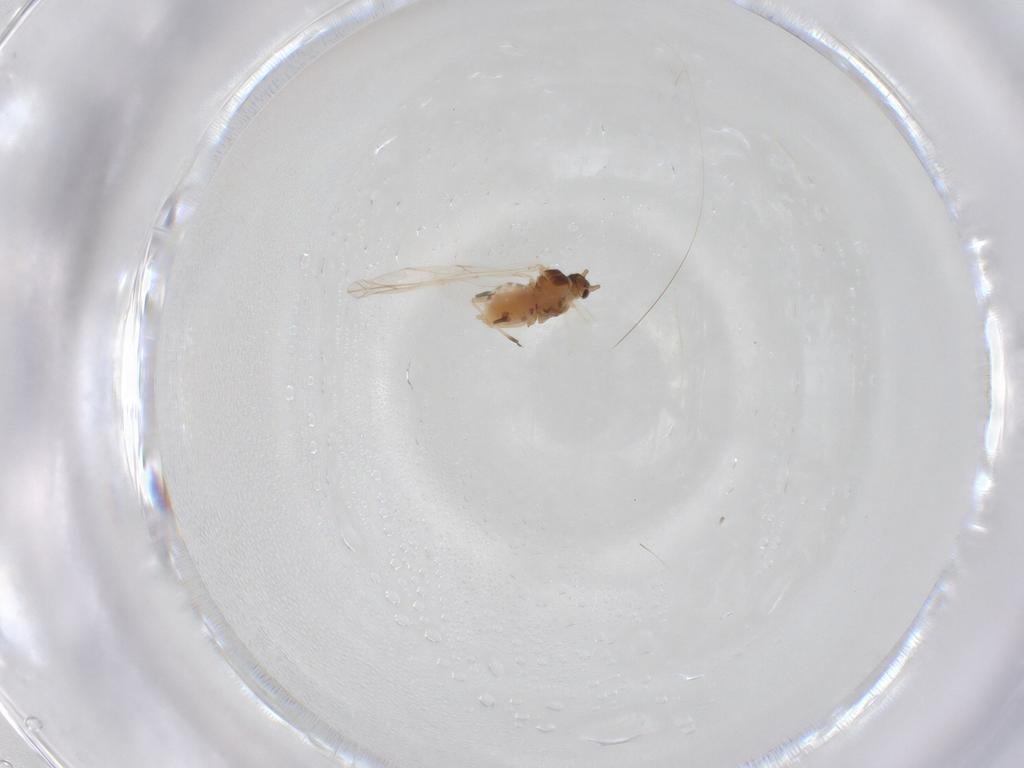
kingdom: Animalia
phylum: Arthropoda
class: Insecta
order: Hemiptera
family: Aphididae
